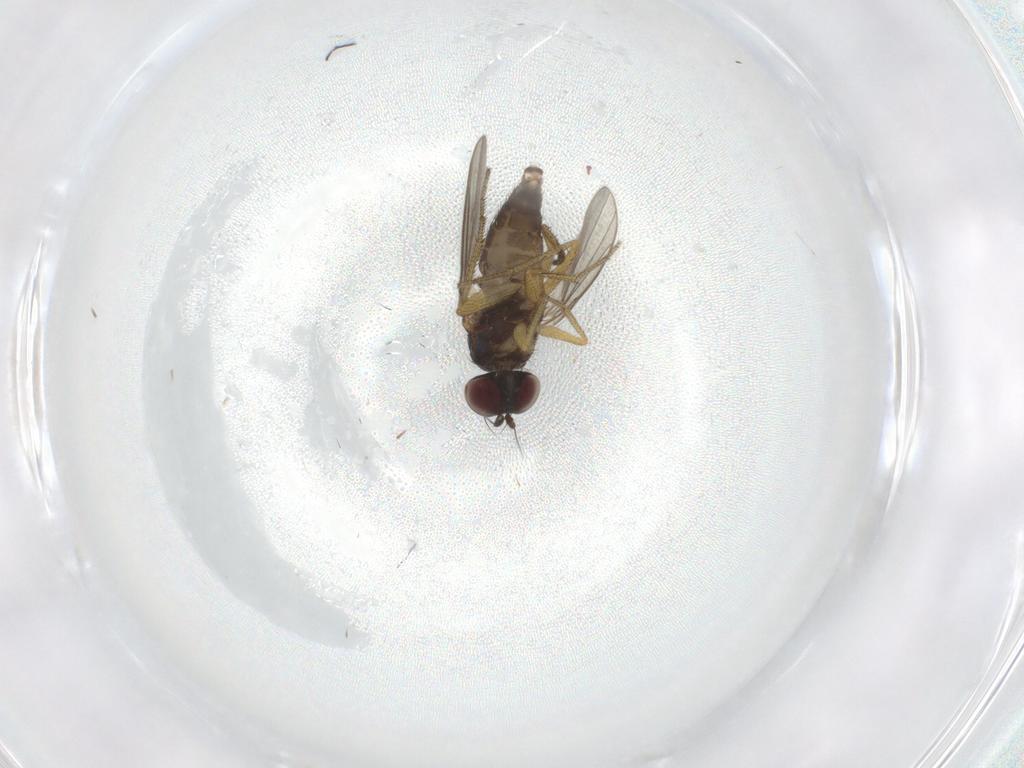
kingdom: Animalia
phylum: Arthropoda
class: Insecta
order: Diptera
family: Dolichopodidae
